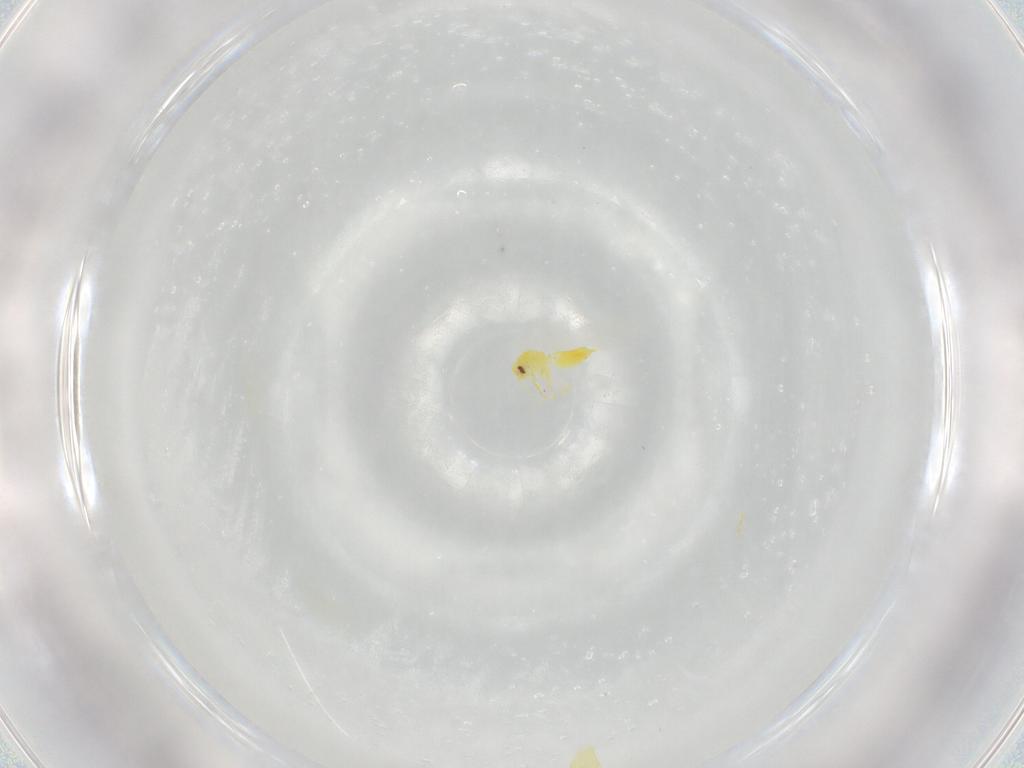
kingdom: Animalia
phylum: Arthropoda
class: Insecta
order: Hemiptera
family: Aleyrodidae
